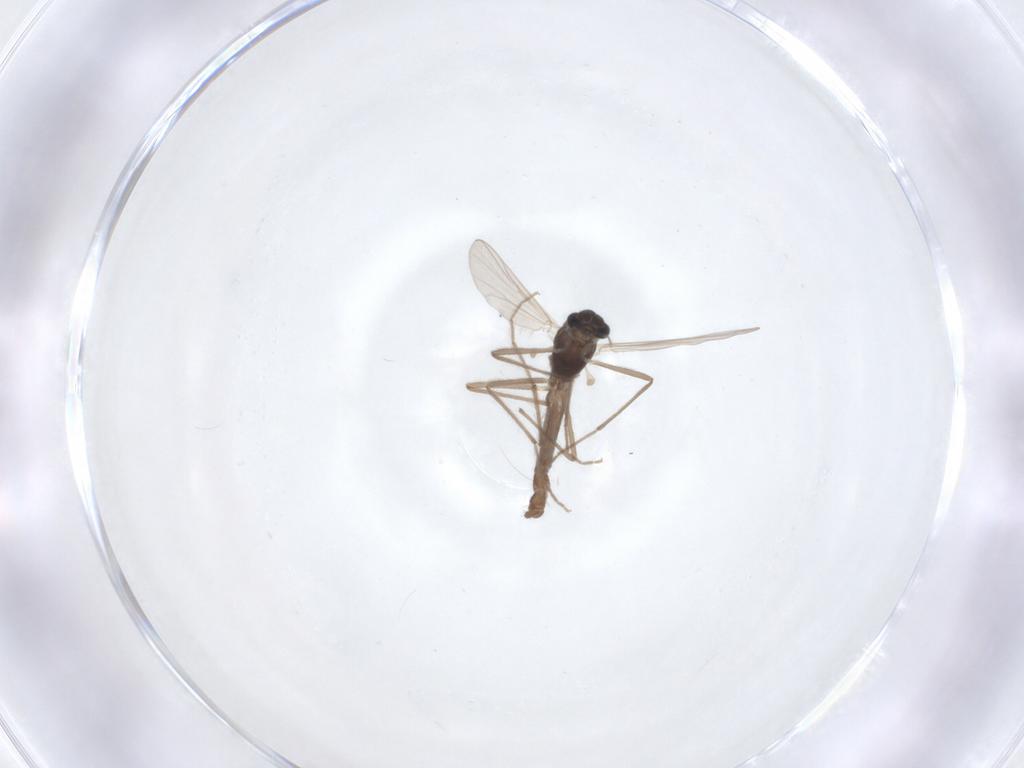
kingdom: Animalia
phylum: Arthropoda
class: Insecta
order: Diptera
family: Chironomidae
